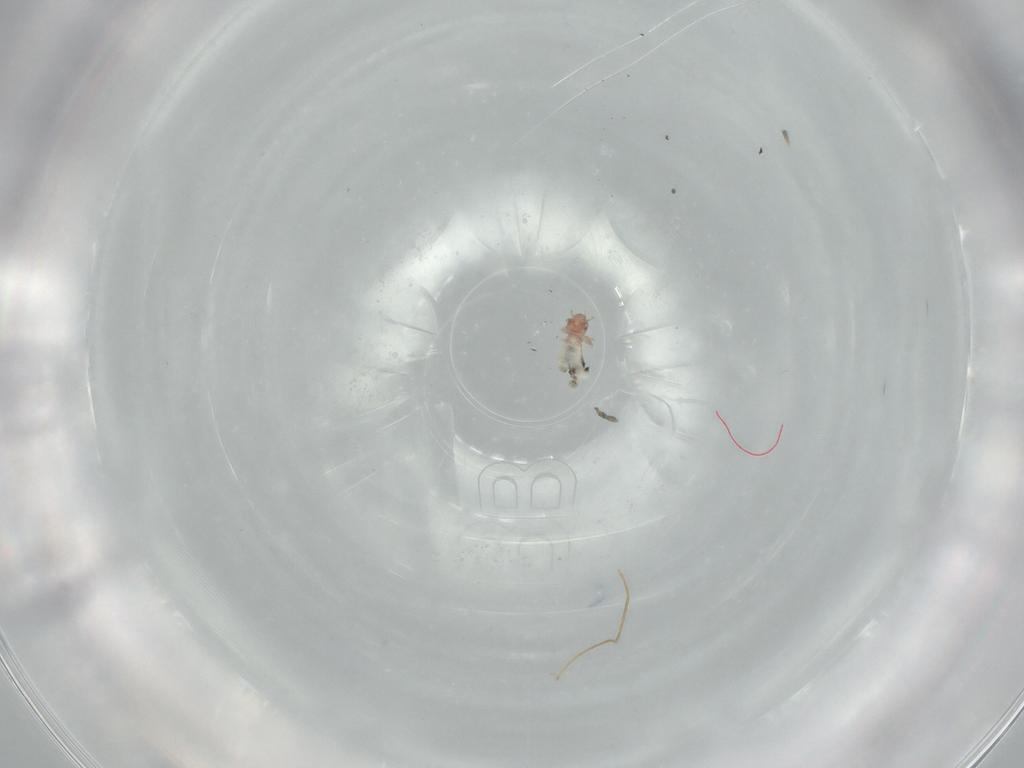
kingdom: Animalia
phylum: Arthropoda
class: Insecta
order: Psocodea
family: Liposcelididae
